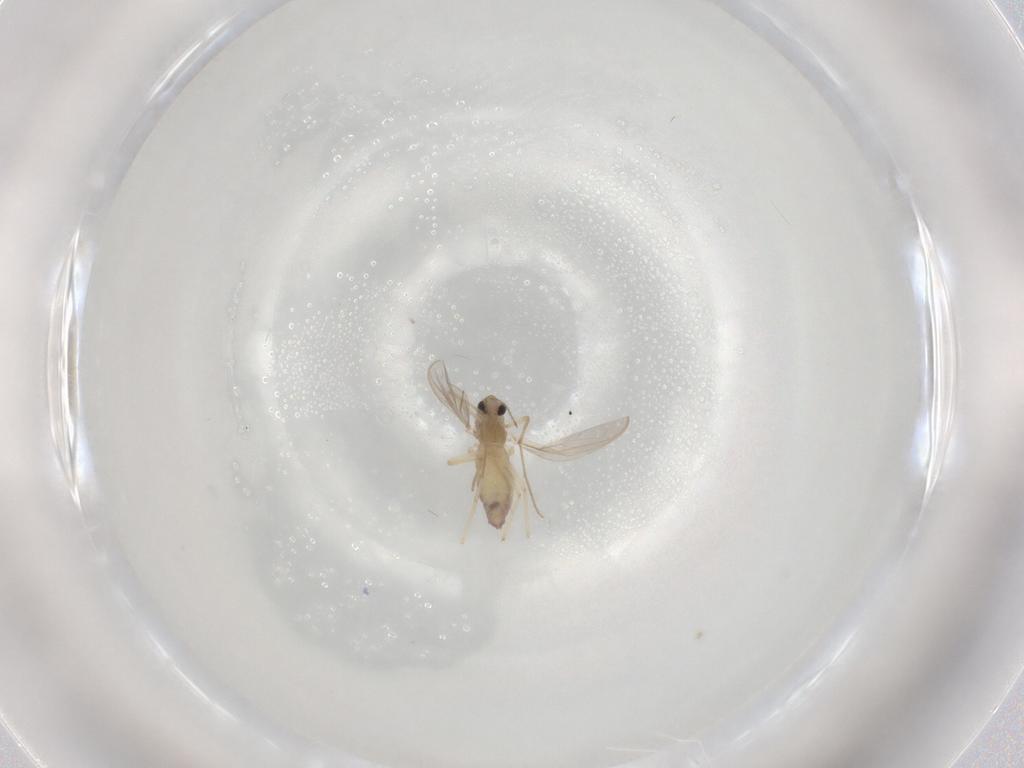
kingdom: Animalia
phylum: Arthropoda
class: Insecta
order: Diptera
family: Chironomidae
